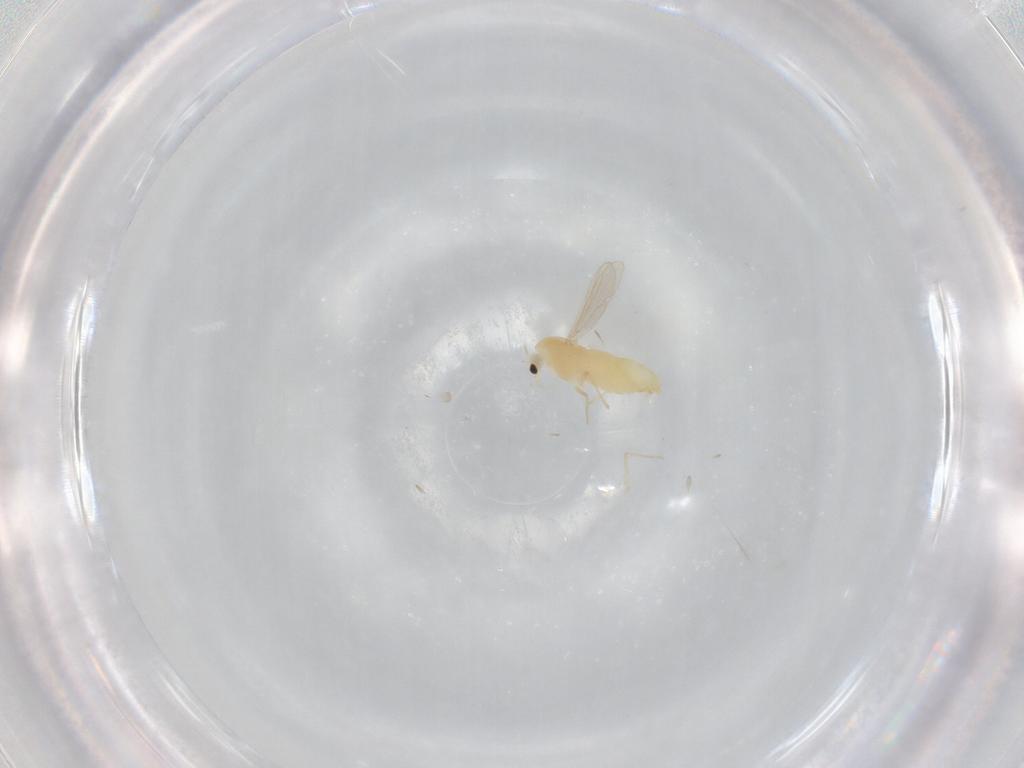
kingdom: Animalia
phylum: Arthropoda
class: Insecta
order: Diptera
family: Chironomidae
